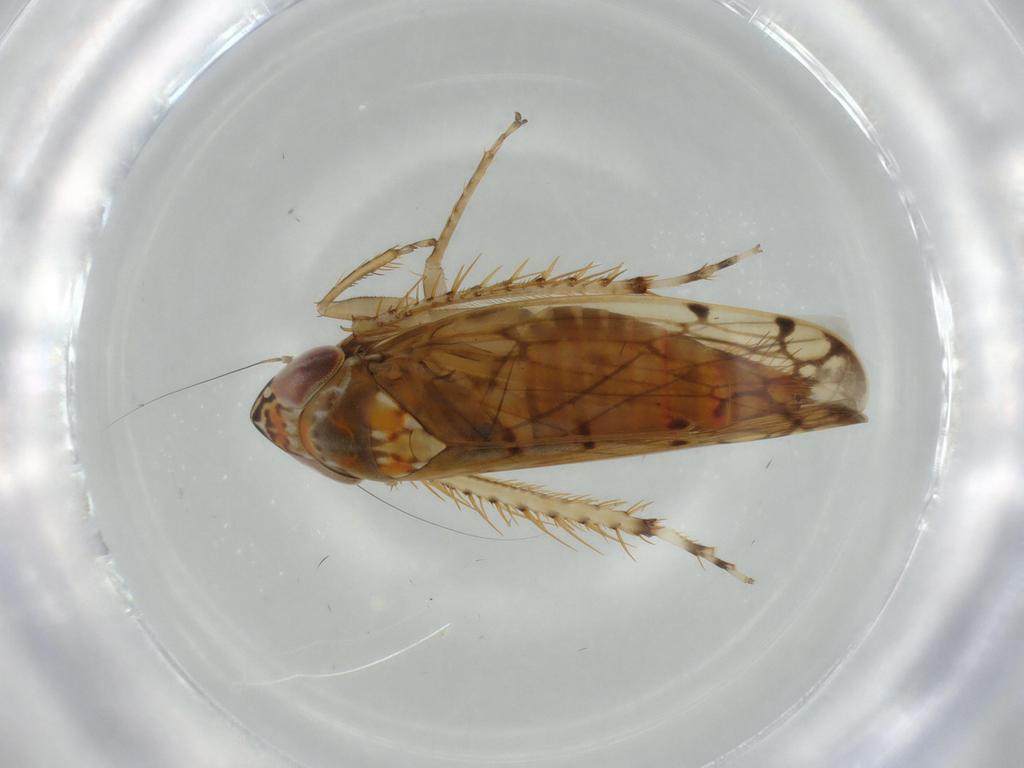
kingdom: Animalia
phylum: Arthropoda
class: Insecta
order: Hemiptera
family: Cicadellidae
